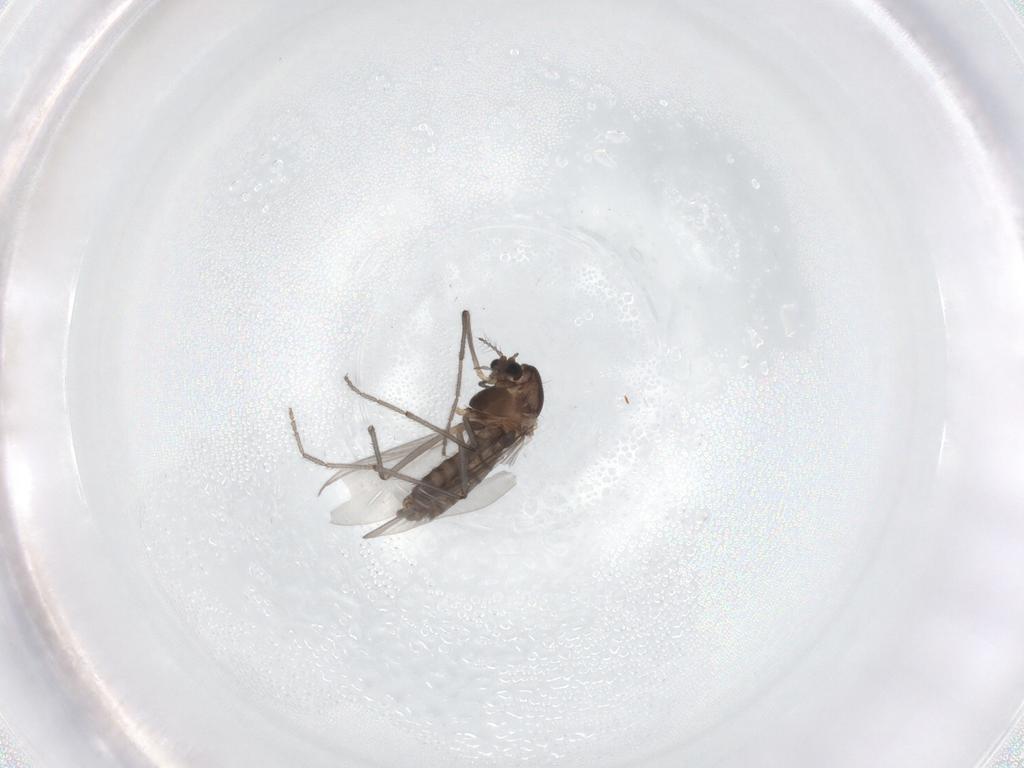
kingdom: Animalia
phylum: Arthropoda
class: Insecta
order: Diptera
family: Chironomidae
